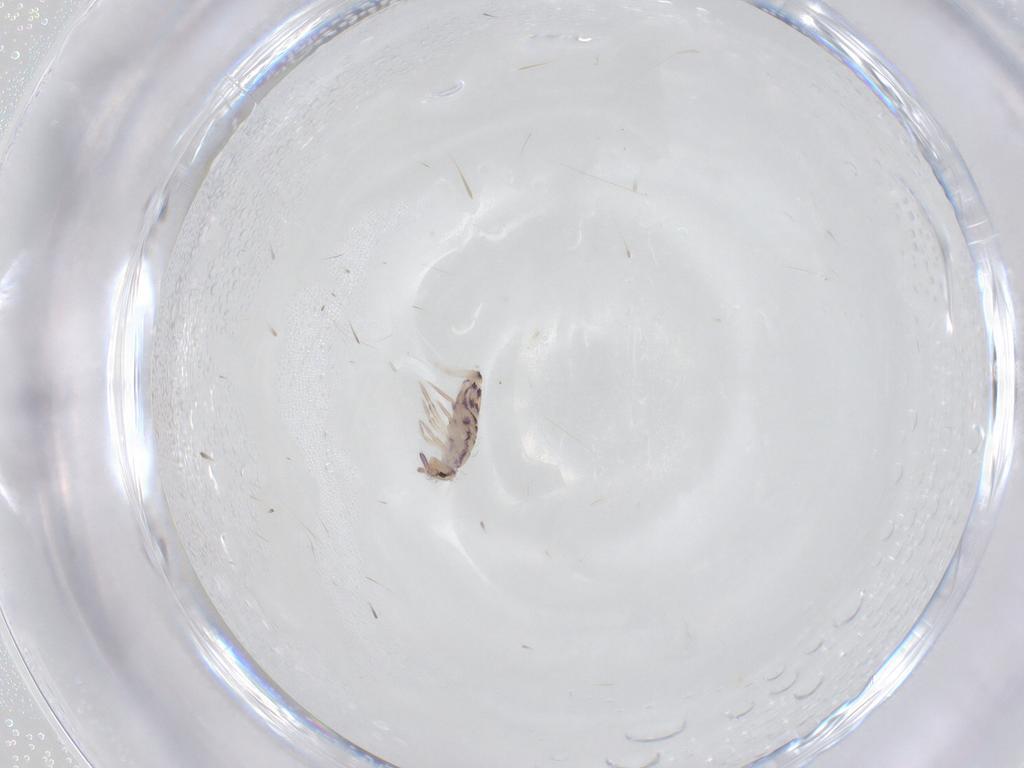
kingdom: Animalia
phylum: Arthropoda
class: Collembola
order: Entomobryomorpha
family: Entomobryidae
